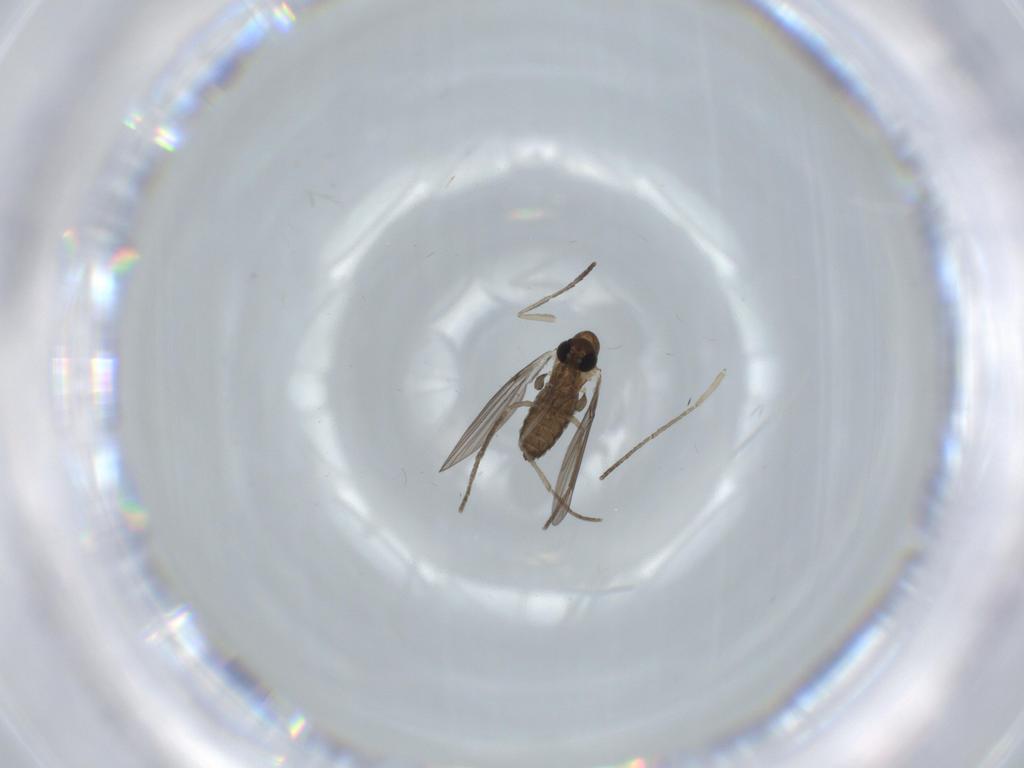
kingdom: Animalia
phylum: Arthropoda
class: Insecta
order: Diptera
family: Psychodidae
